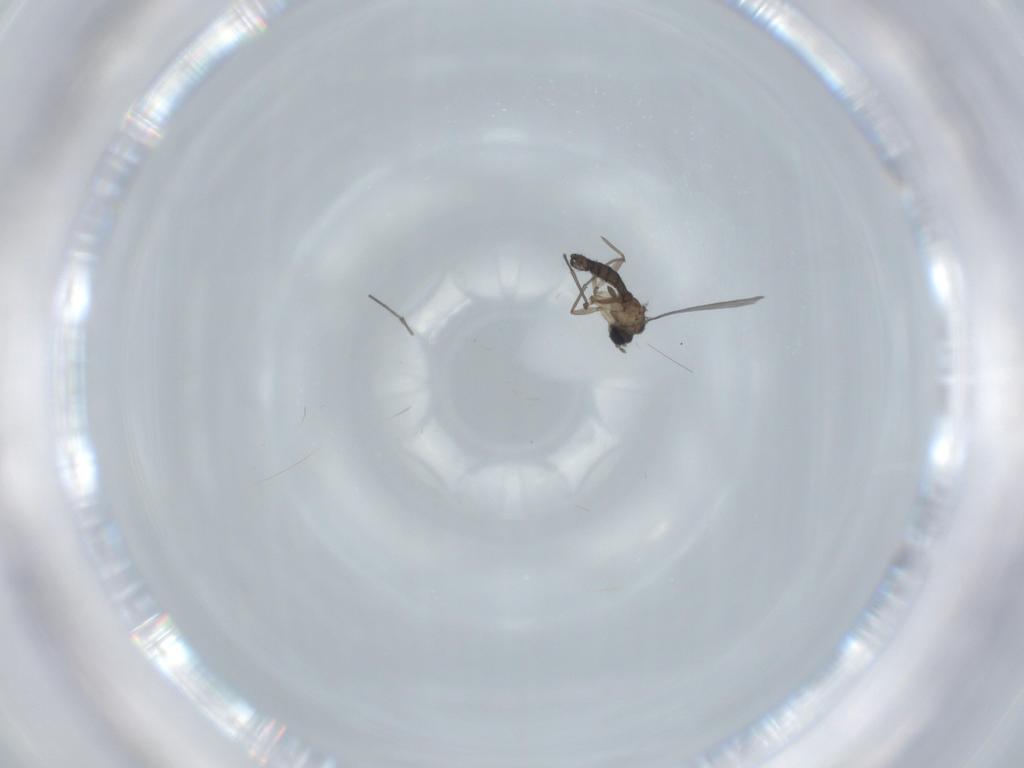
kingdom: Animalia
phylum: Arthropoda
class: Insecta
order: Diptera
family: Sciaridae
